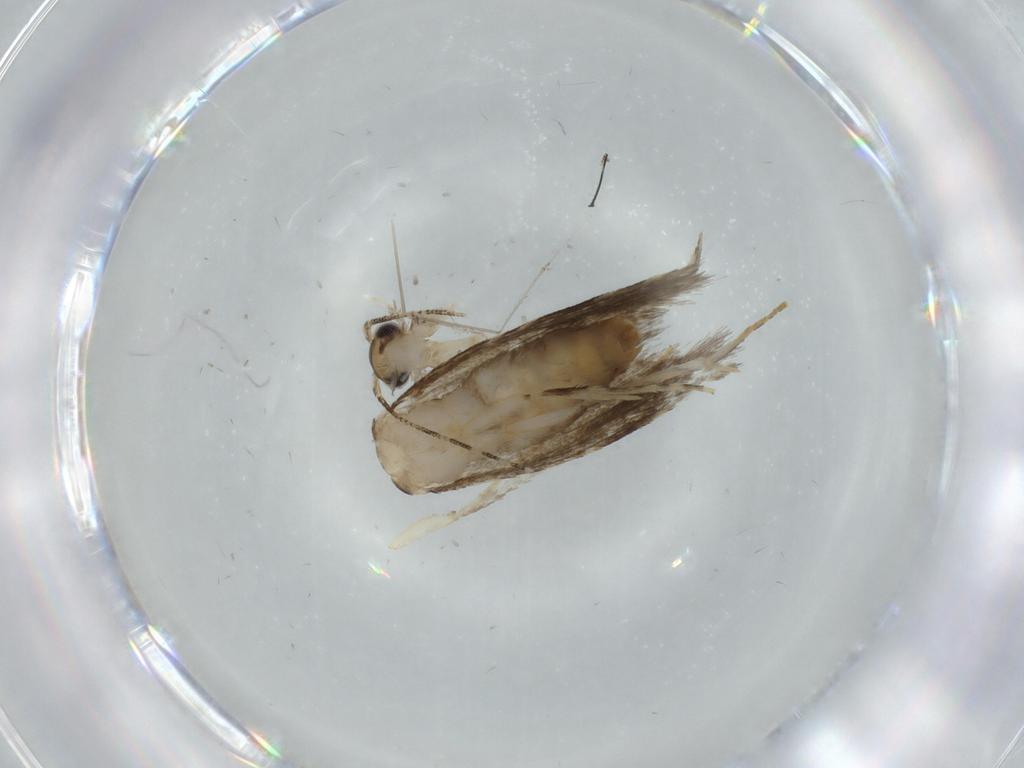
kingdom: Animalia
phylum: Arthropoda
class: Insecta
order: Lepidoptera
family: Tineidae
